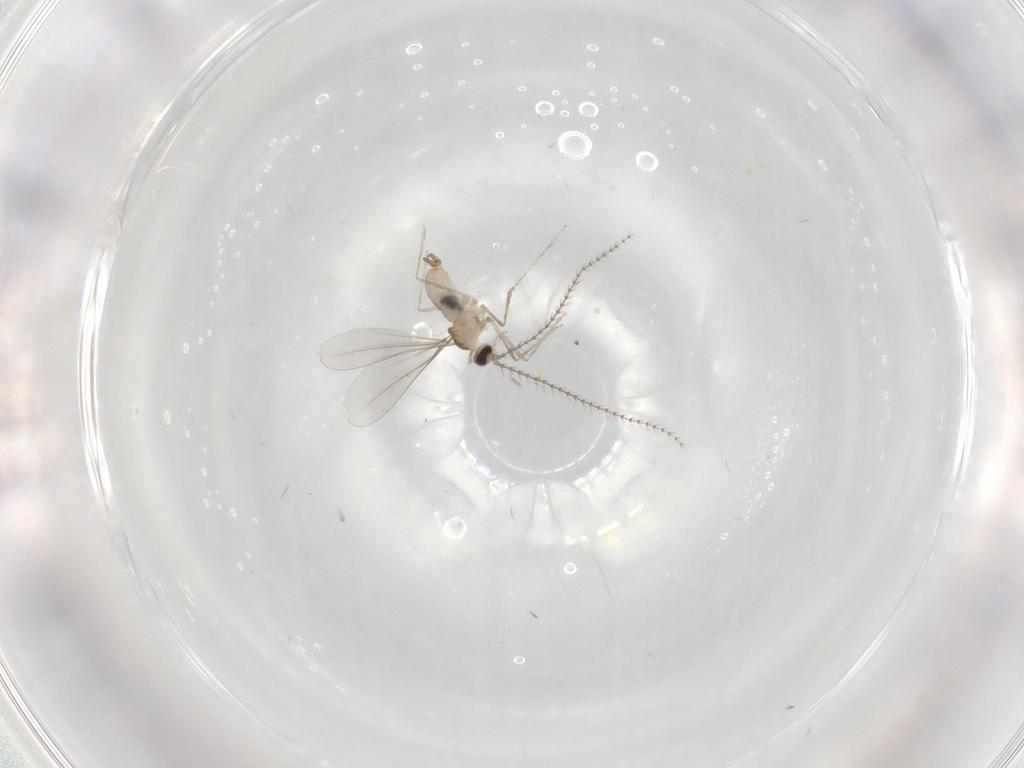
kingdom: Animalia
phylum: Arthropoda
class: Insecta
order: Diptera
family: Cecidomyiidae
